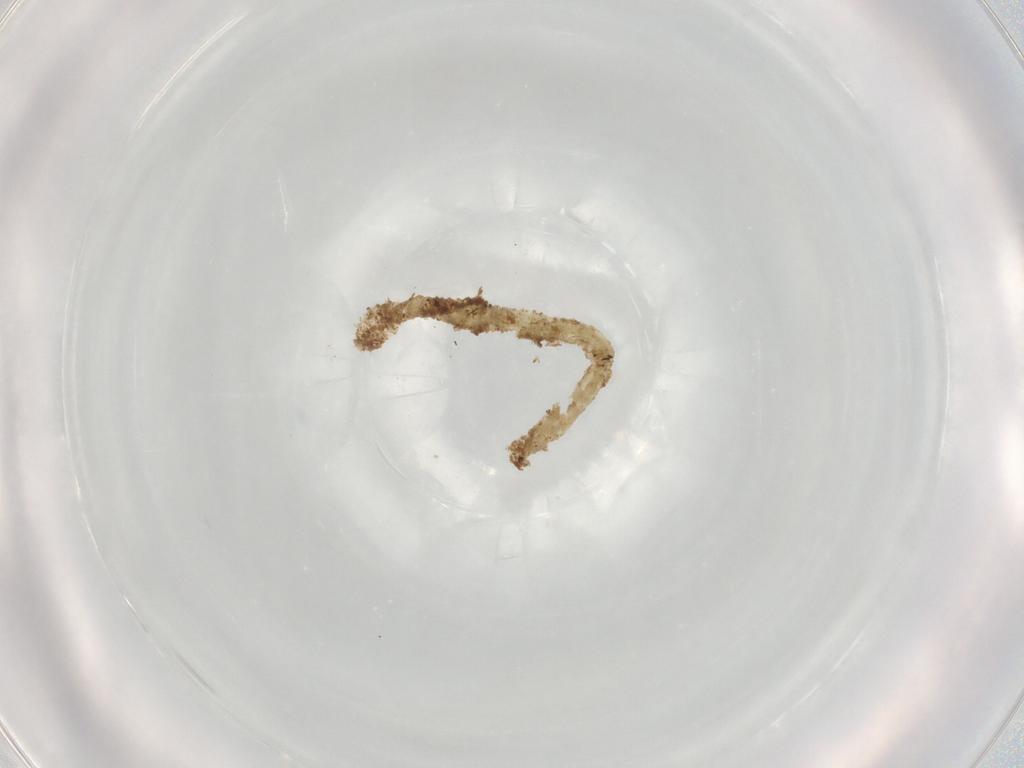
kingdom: Animalia
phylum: Arthropoda
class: Insecta
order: Diptera
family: Chironomidae
